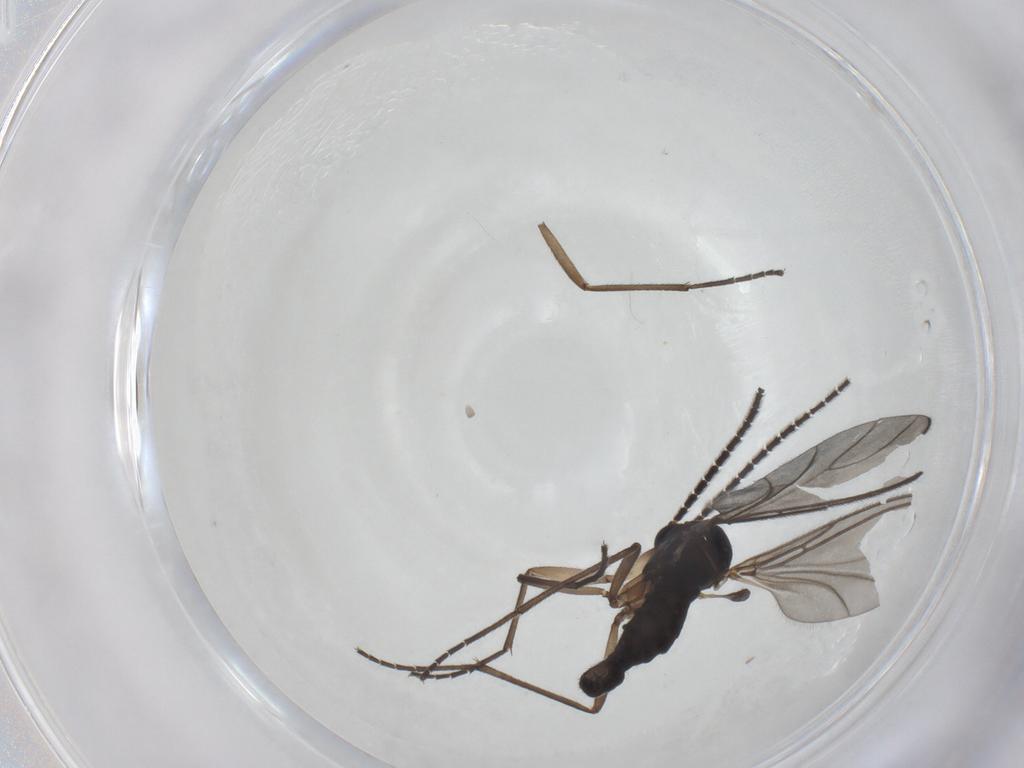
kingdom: Animalia
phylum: Arthropoda
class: Insecta
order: Diptera
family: Sciaridae
